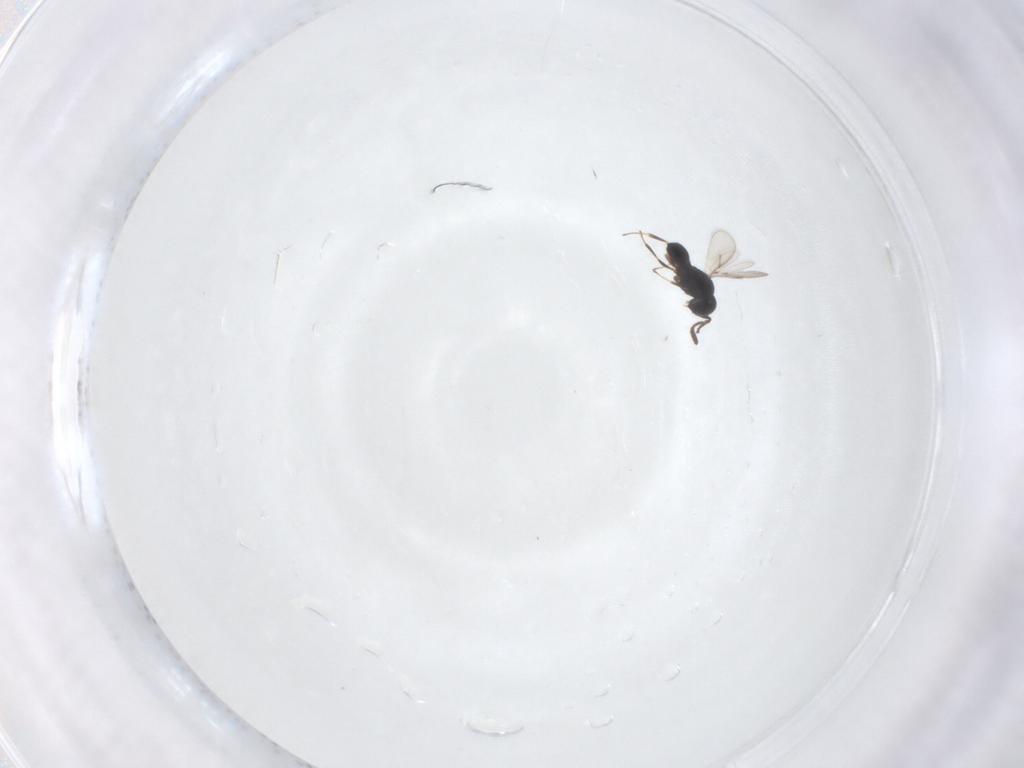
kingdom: Animalia
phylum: Arthropoda
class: Insecta
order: Hymenoptera
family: Scelionidae
